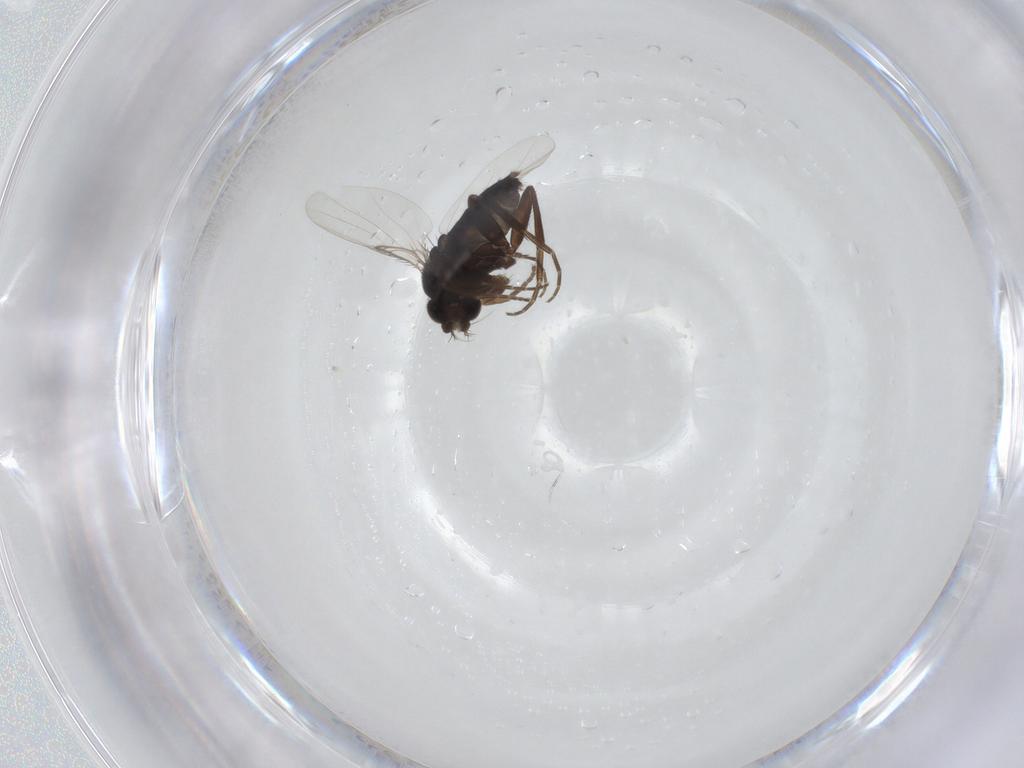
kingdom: Animalia
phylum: Arthropoda
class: Insecta
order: Diptera
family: Phoridae
